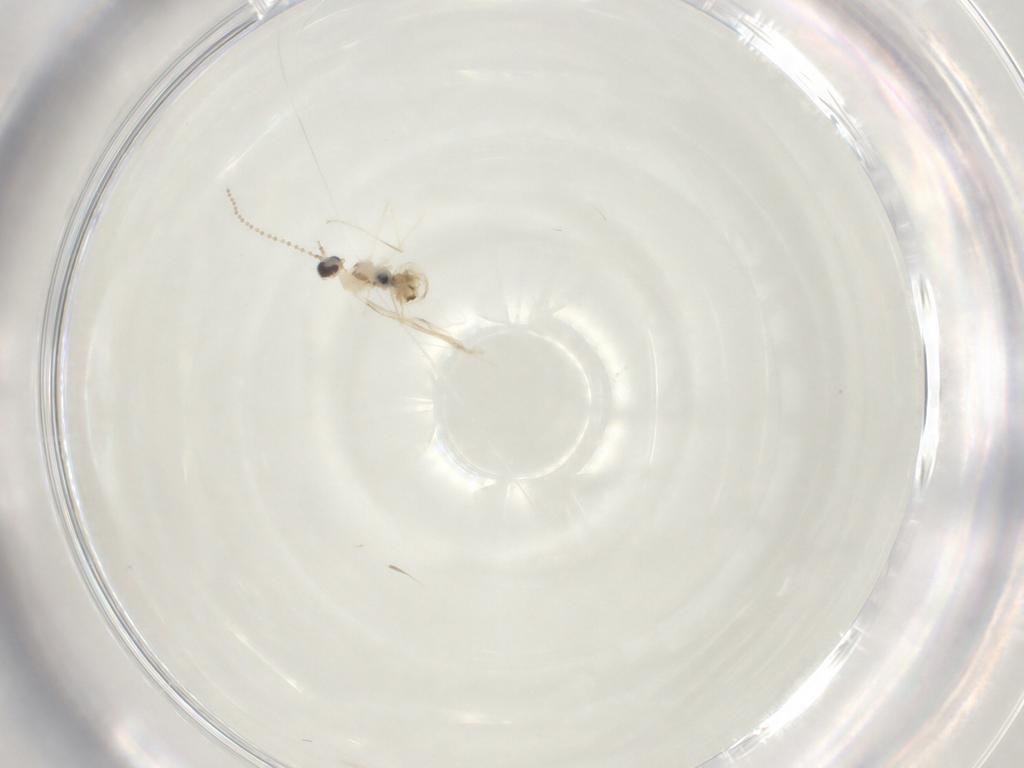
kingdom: Animalia
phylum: Arthropoda
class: Insecta
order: Diptera
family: Cecidomyiidae
